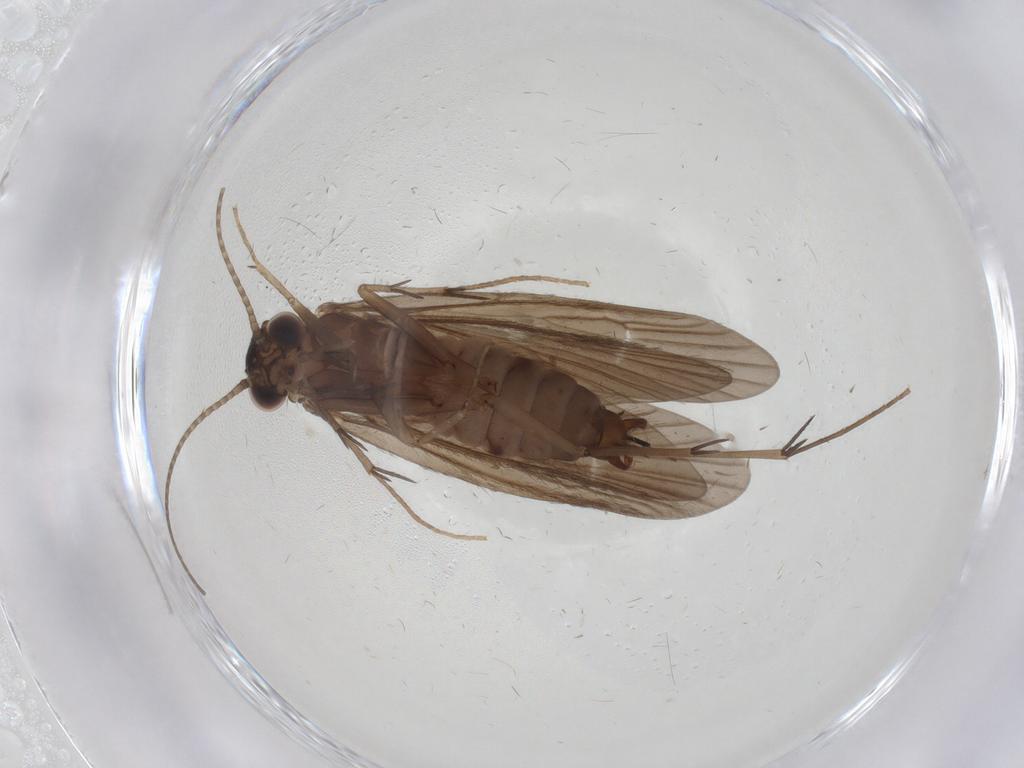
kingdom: Animalia
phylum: Arthropoda
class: Insecta
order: Trichoptera
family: Philopotamidae
